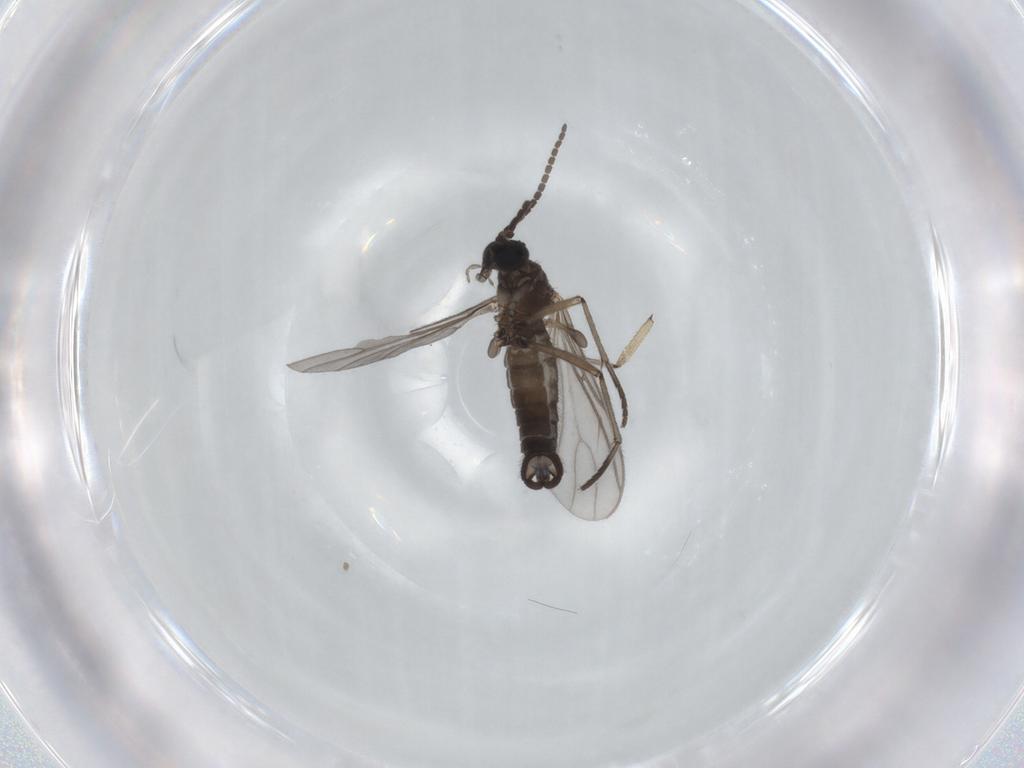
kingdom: Animalia
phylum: Arthropoda
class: Insecta
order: Diptera
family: Sciaridae
